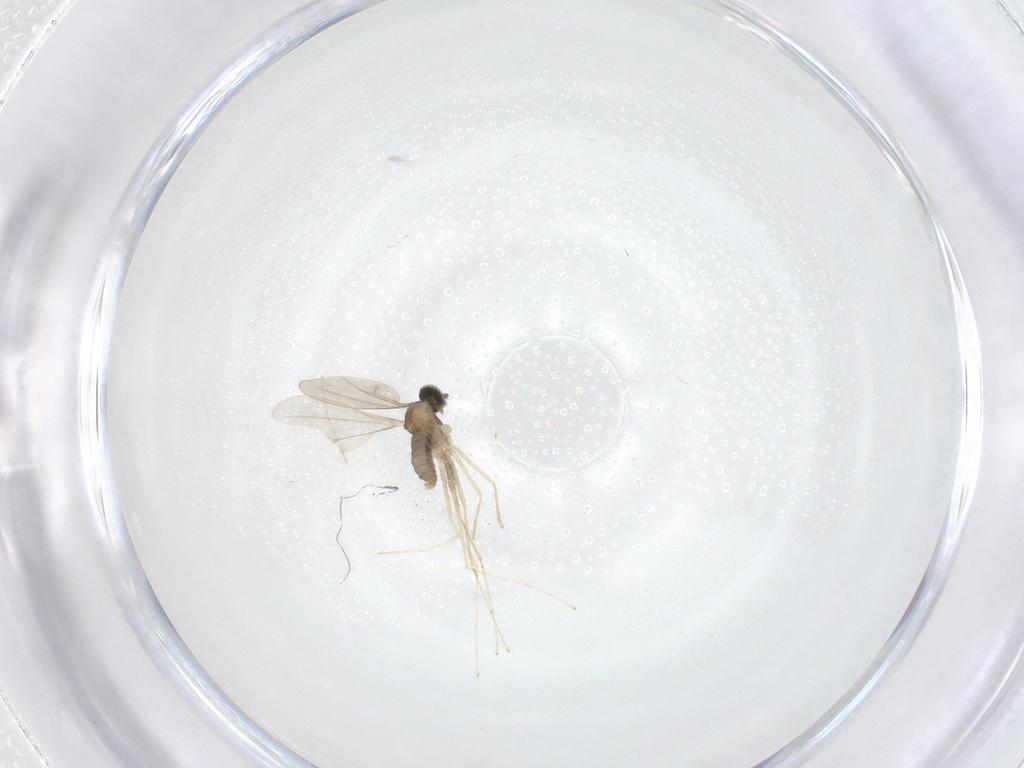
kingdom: Animalia
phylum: Arthropoda
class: Insecta
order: Diptera
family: Cecidomyiidae
